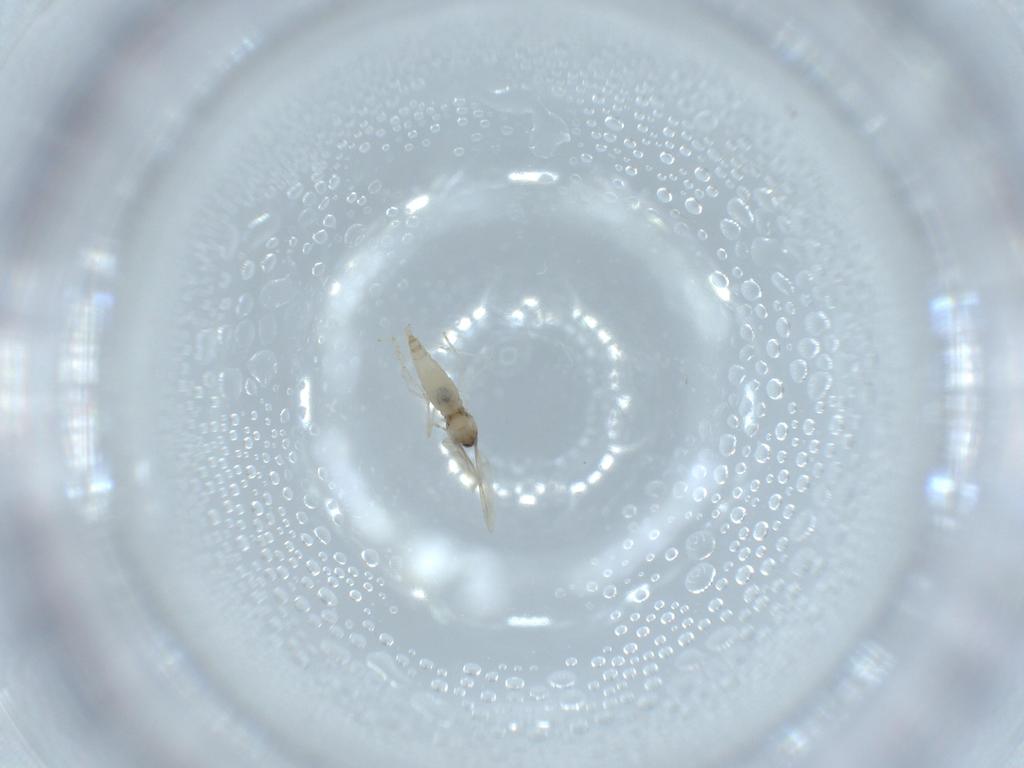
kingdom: Animalia
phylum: Arthropoda
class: Insecta
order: Diptera
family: Cecidomyiidae
